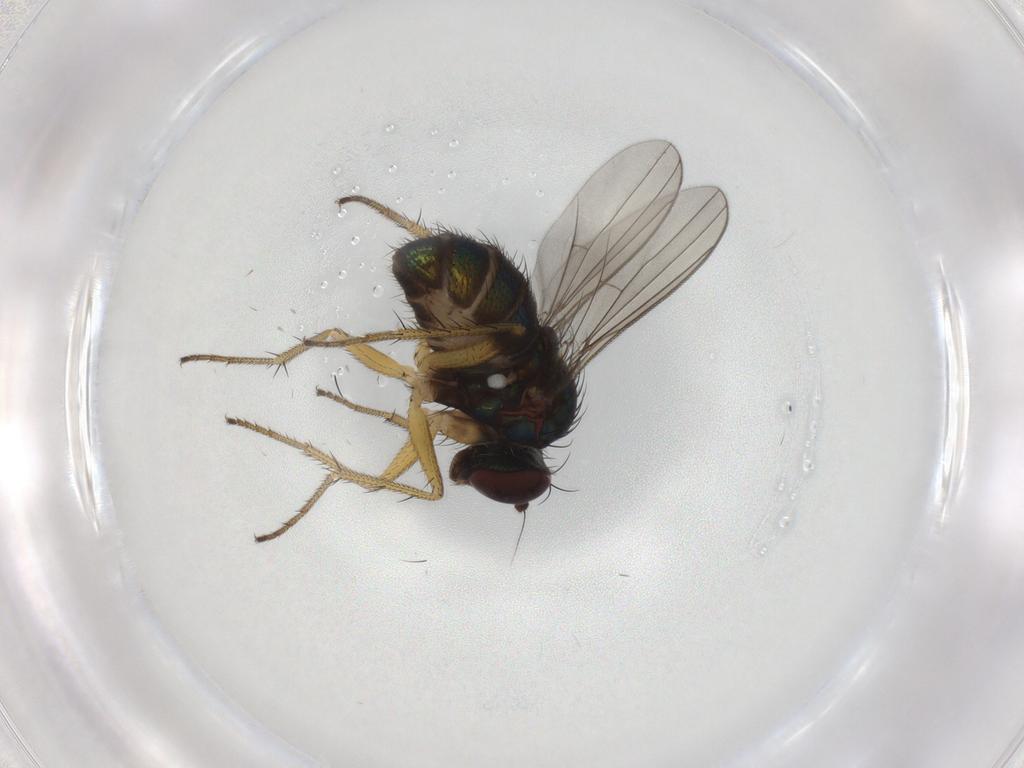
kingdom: Animalia
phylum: Arthropoda
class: Insecta
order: Diptera
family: Dolichopodidae
